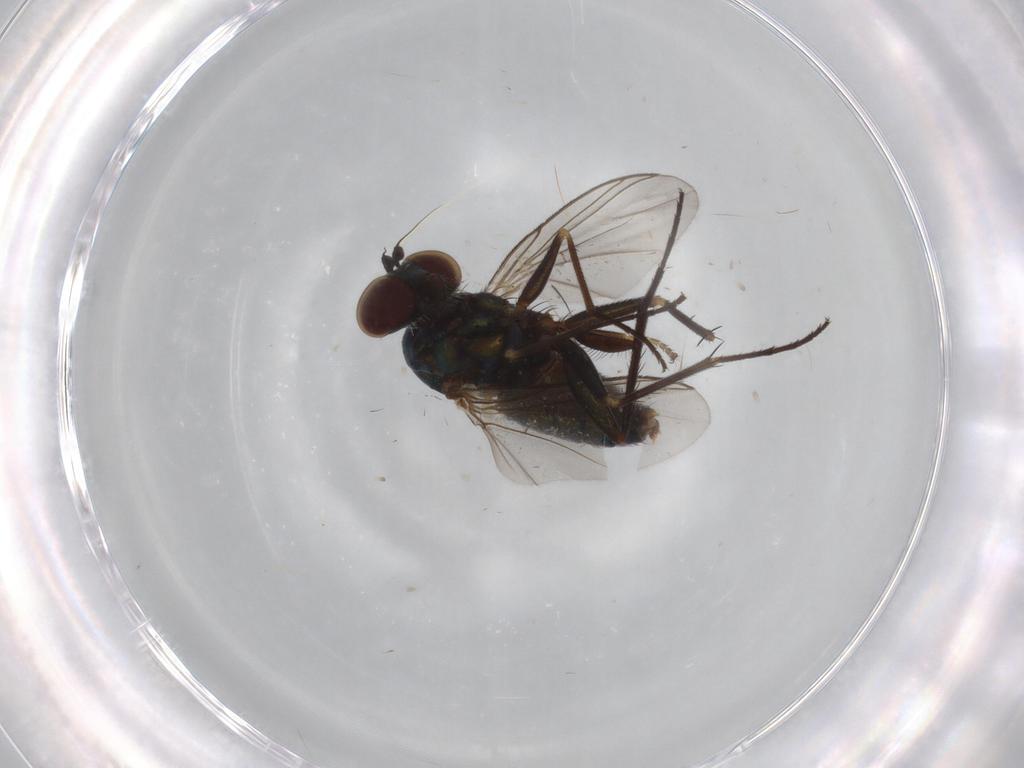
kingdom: Animalia
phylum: Arthropoda
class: Insecta
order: Diptera
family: Dolichopodidae
